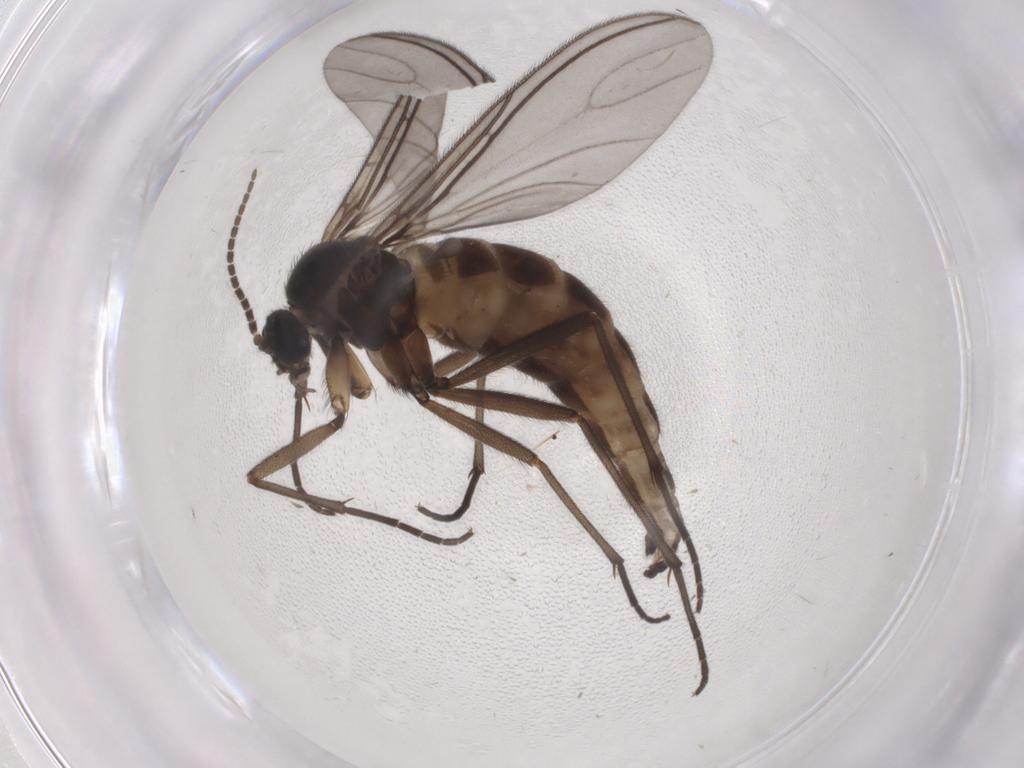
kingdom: Animalia
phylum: Arthropoda
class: Insecta
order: Diptera
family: Sciaridae
